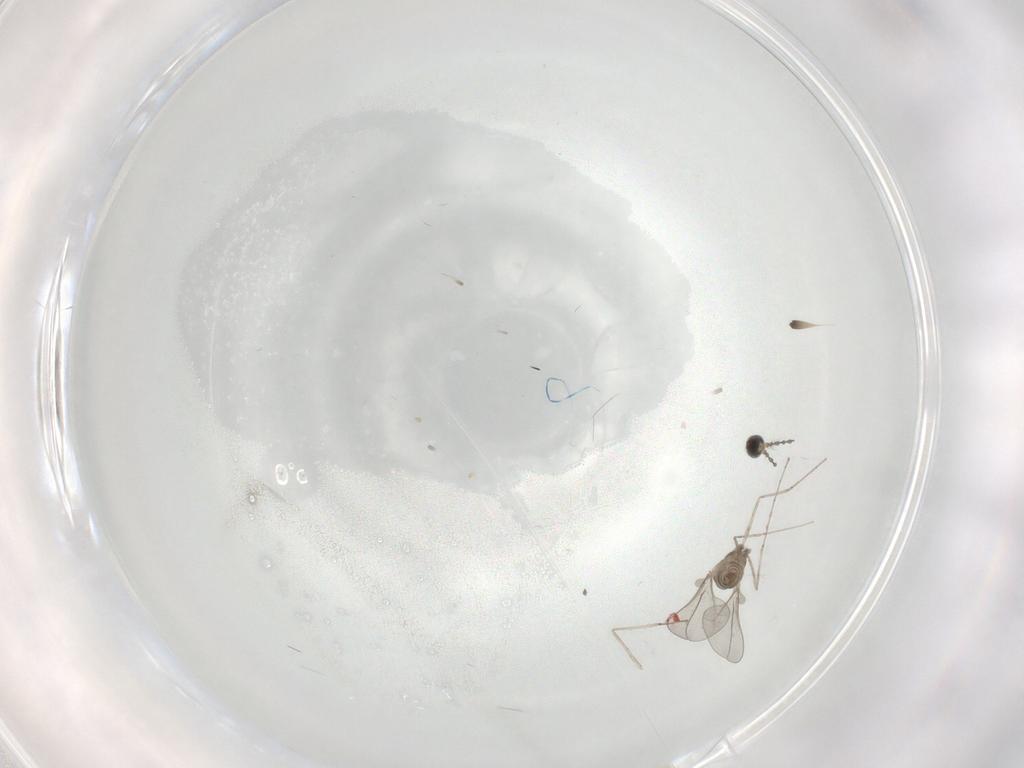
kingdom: Animalia
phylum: Arthropoda
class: Insecta
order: Diptera
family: Cecidomyiidae
